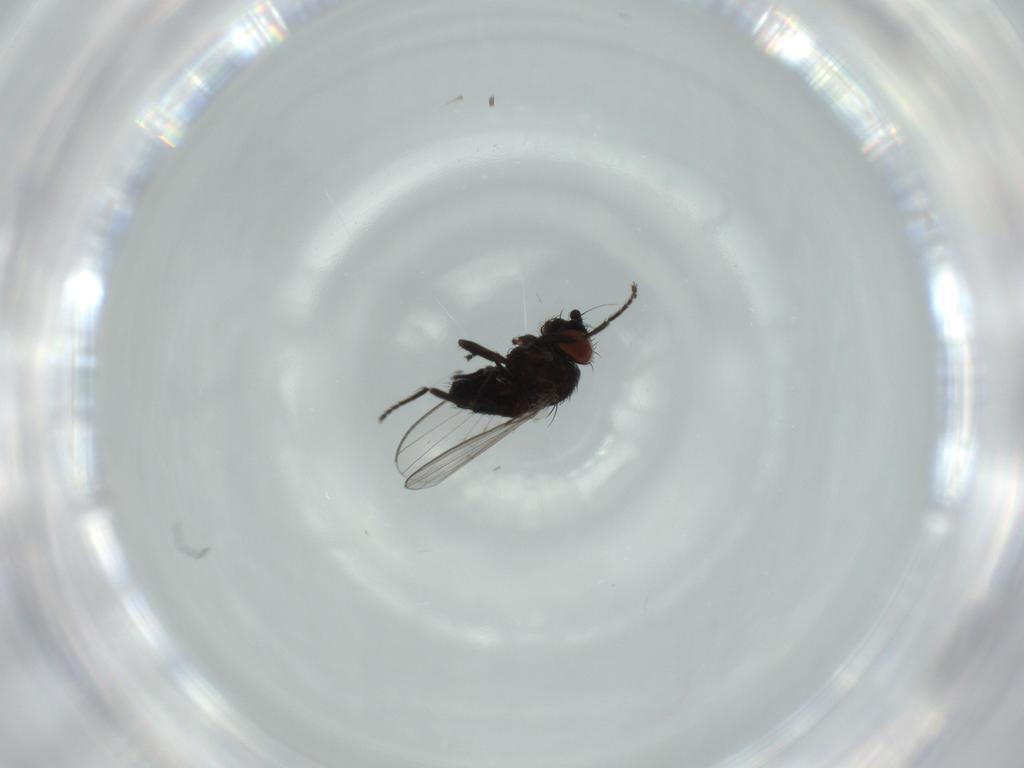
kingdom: Animalia
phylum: Arthropoda
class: Insecta
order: Diptera
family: Milichiidae
